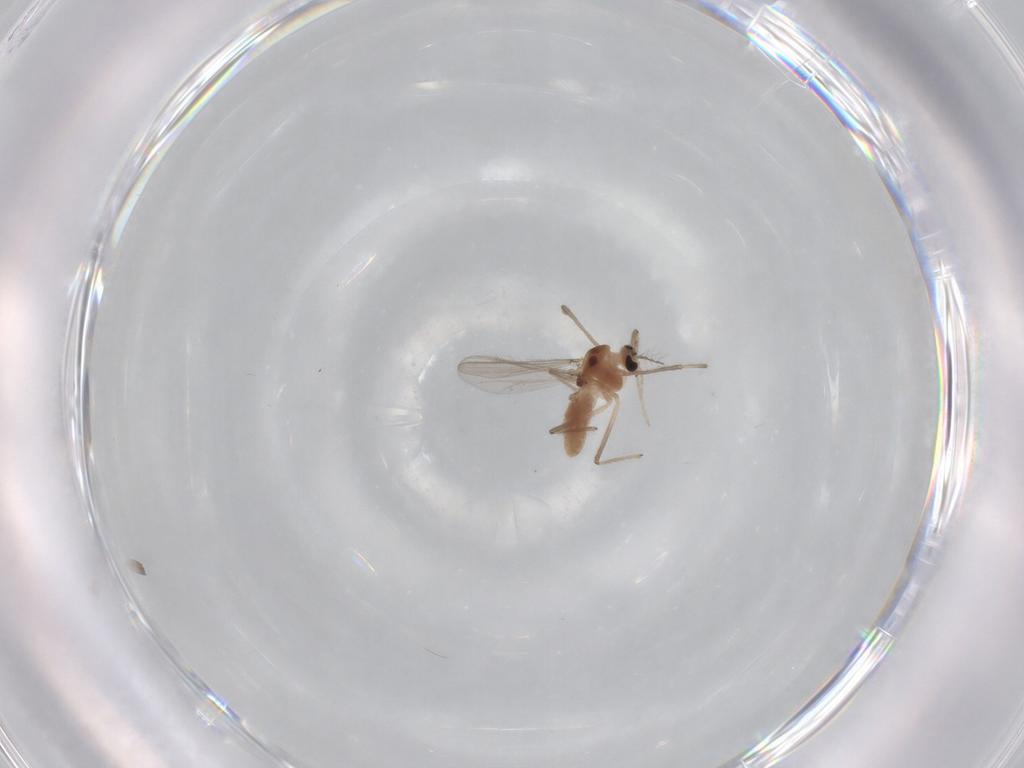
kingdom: Animalia
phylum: Arthropoda
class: Insecta
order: Diptera
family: Chironomidae
